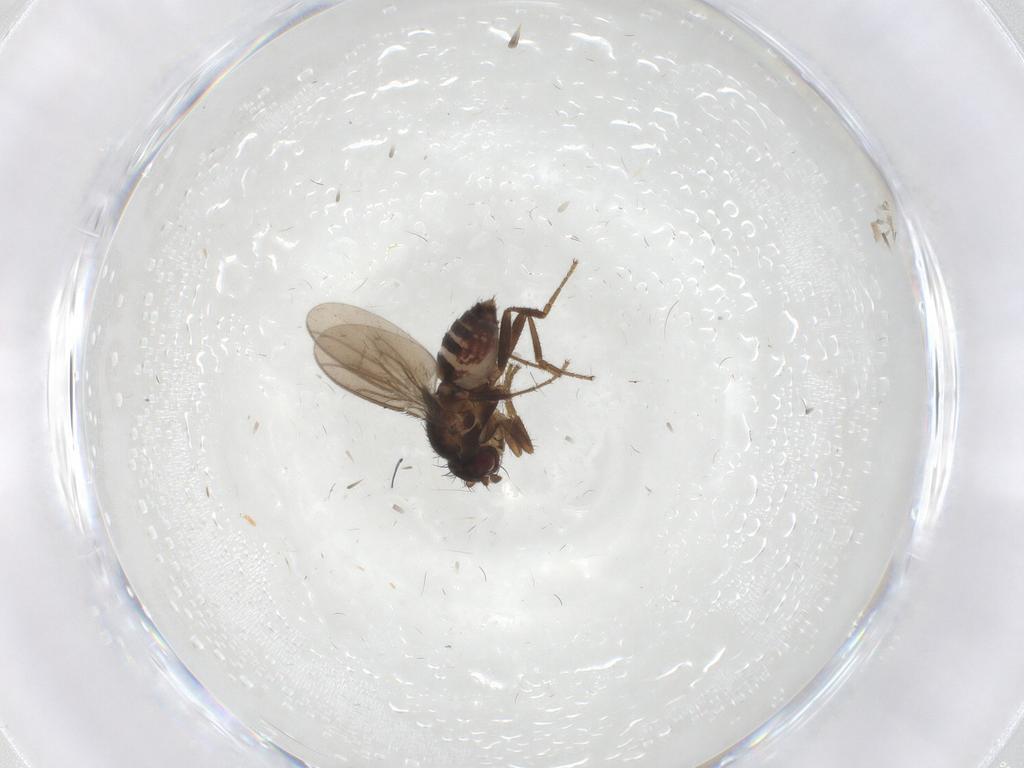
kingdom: Animalia
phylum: Arthropoda
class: Insecta
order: Diptera
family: Sphaeroceridae
